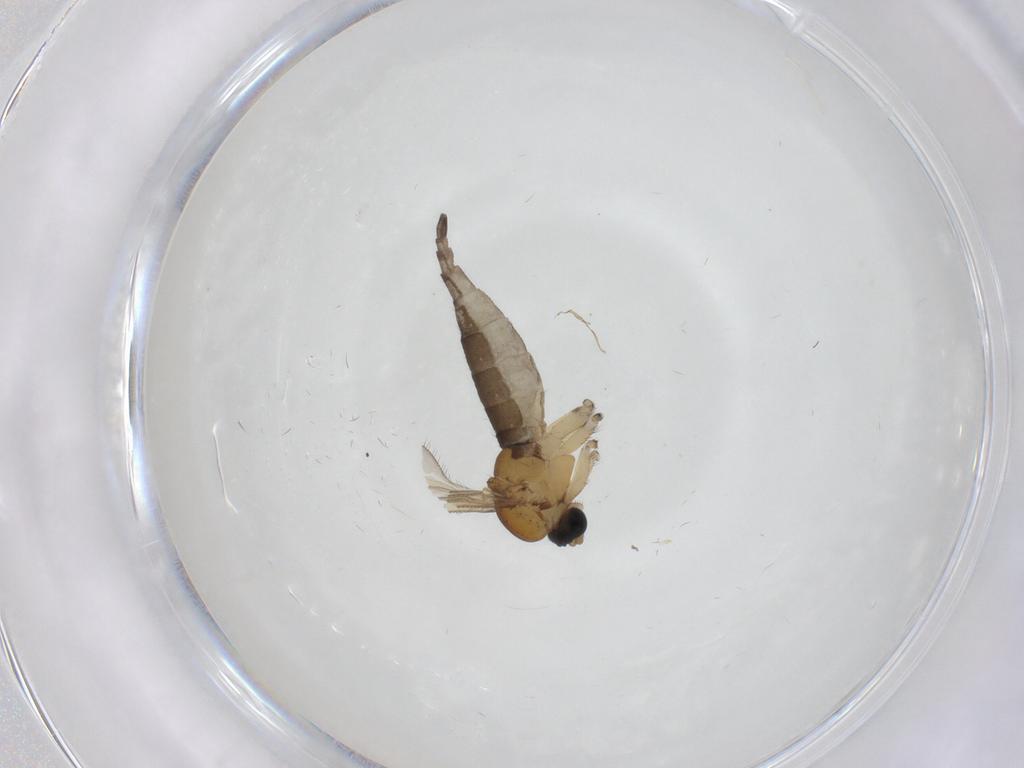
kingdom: Animalia
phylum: Arthropoda
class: Insecta
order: Diptera
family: Sciaridae
